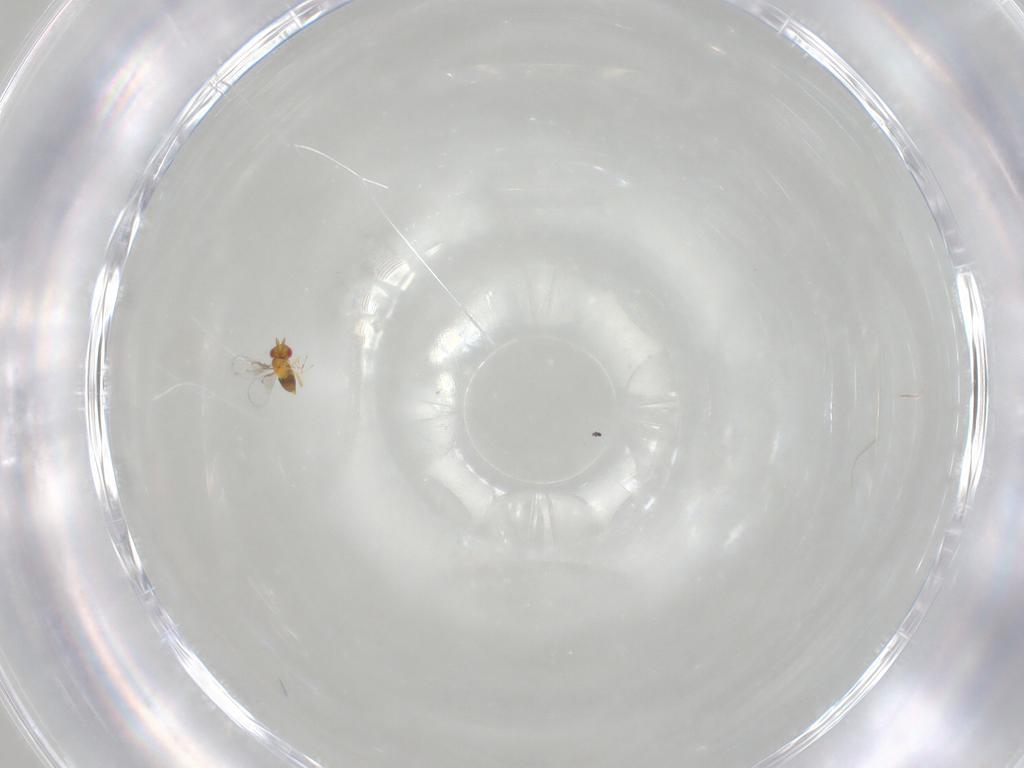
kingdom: Animalia
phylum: Arthropoda
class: Insecta
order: Hymenoptera
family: Trichogrammatidae
